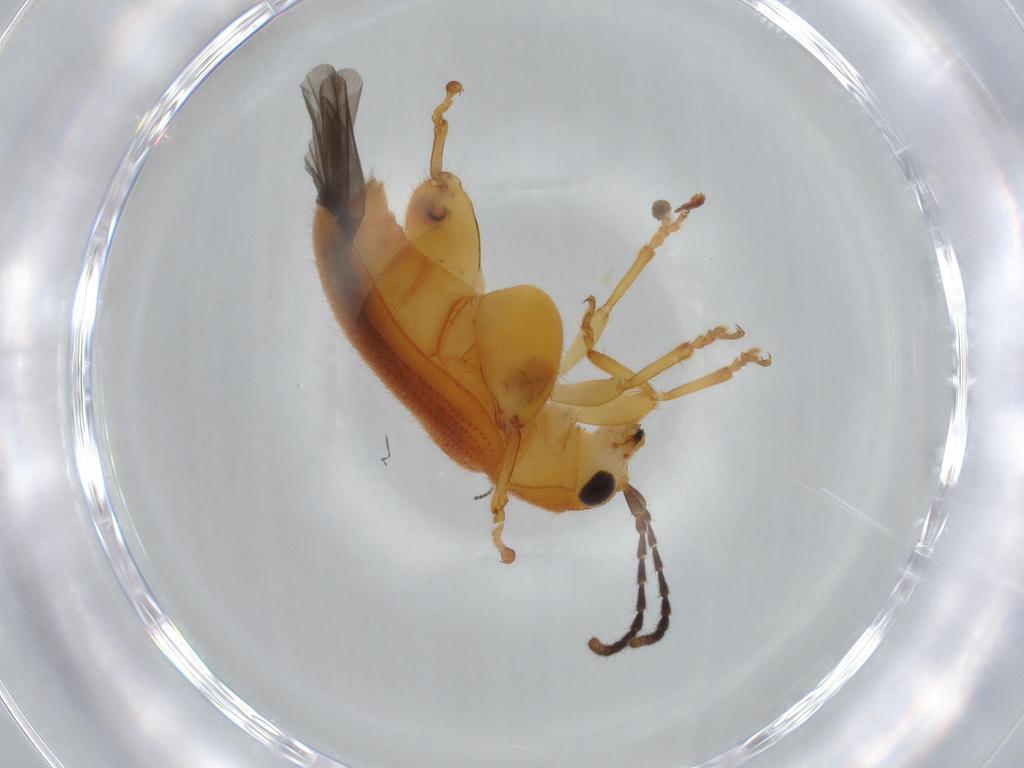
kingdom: Animalia
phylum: Arthropoda
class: Insecta
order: Coleoptera
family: Chrysomelidae
